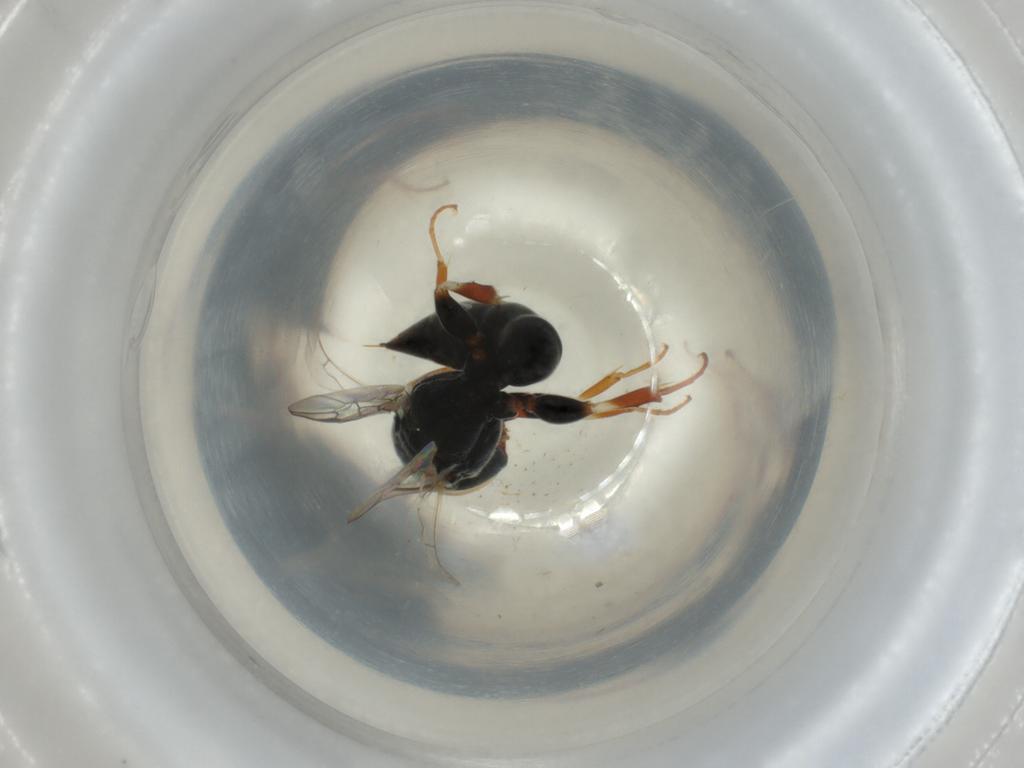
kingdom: Animalia
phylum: Arthropoda
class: Insecta
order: Hymenoptera
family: Pemphredonidae
